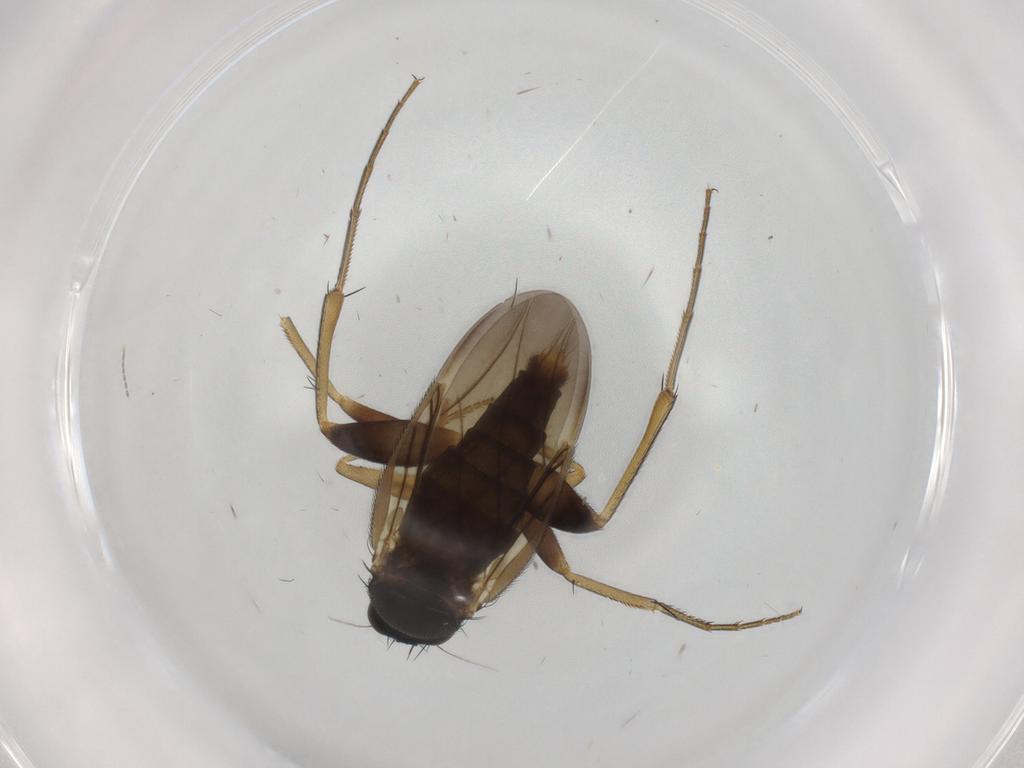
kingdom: Animalia
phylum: Arthropoda
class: Insecta
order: Diptera
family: Phoridae
